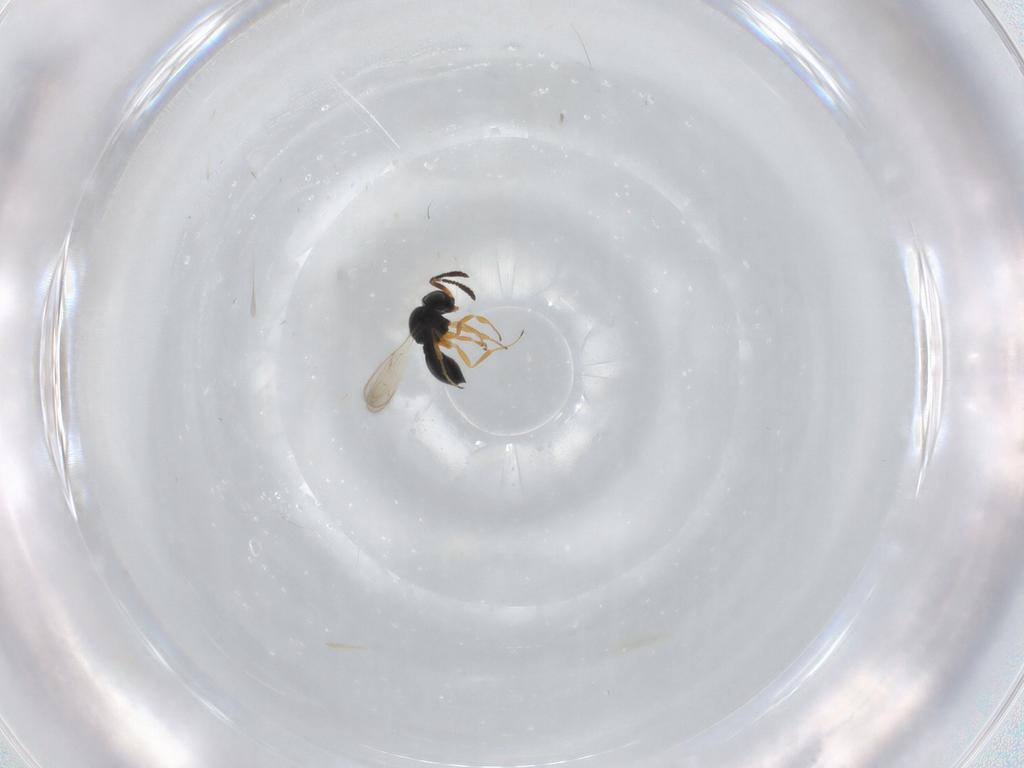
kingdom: Animalia
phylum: Arthropoda
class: Insecta
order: Hymenoptera
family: Scelionidae
